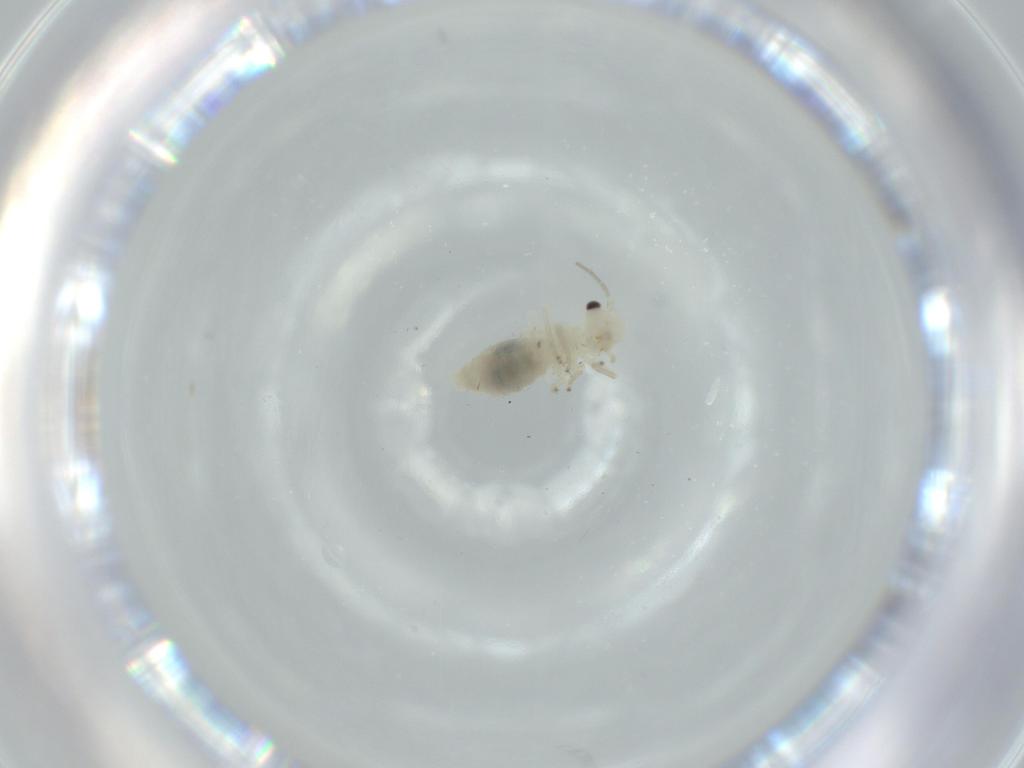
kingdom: Animalia
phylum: Arthropoda
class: Insecta
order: Psocodea
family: Caeciliusidae
